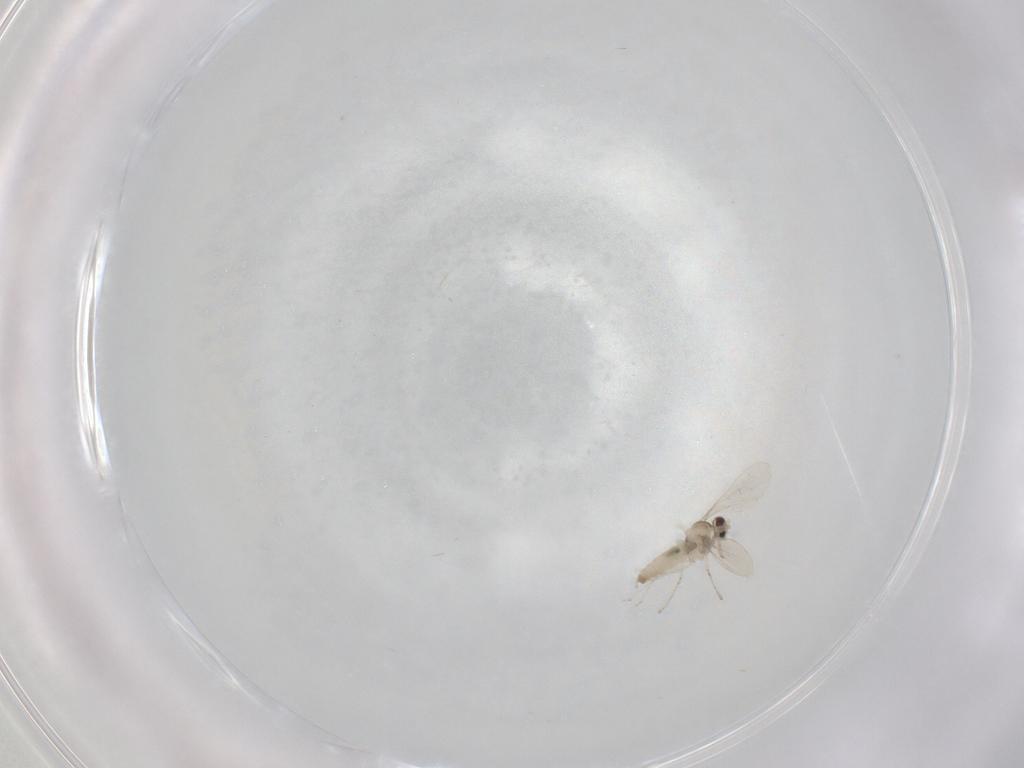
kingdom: Animalia
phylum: Arthropoda
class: Insecta
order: Diptera
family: Cecidomyiidae
